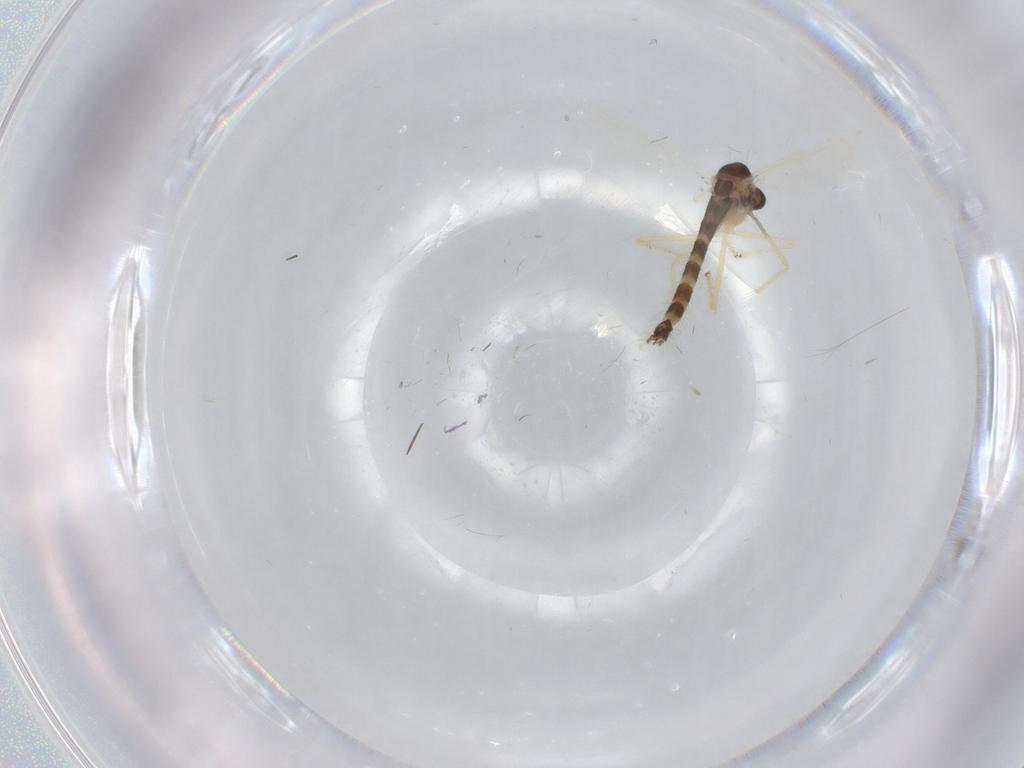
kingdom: Animalia
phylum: Arthropoda
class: Insecta
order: Diptera
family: Chironomidae
